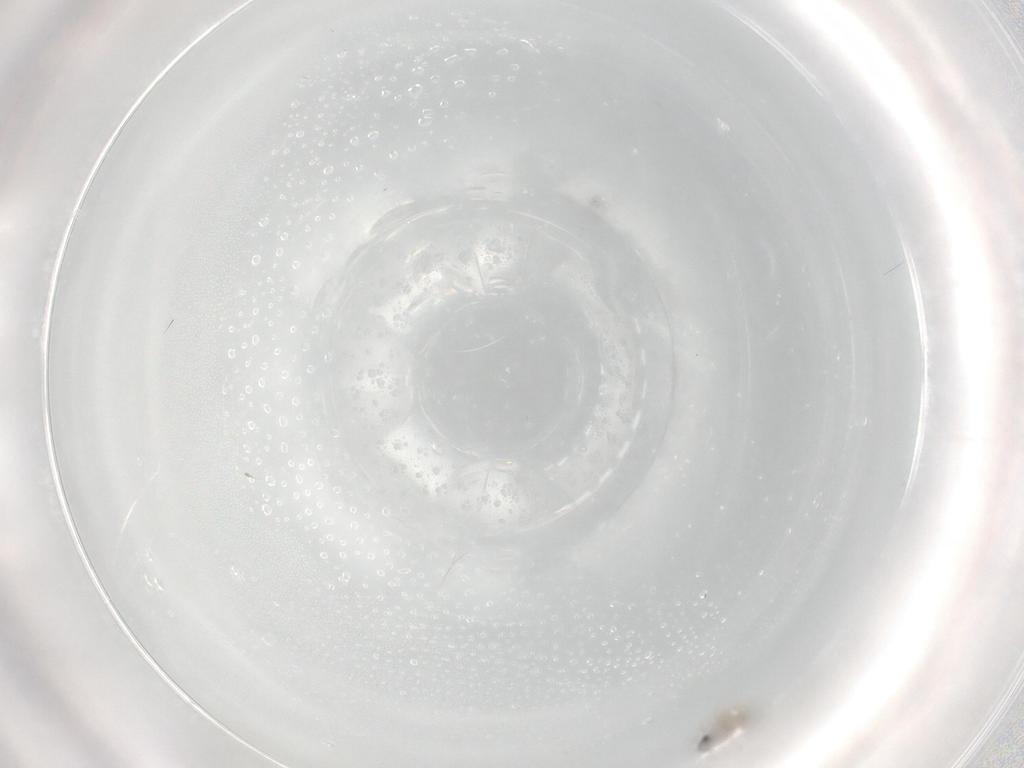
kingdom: Animalia
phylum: Arthropoda
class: Insecta
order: Diptera
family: Cecidomyiidae
